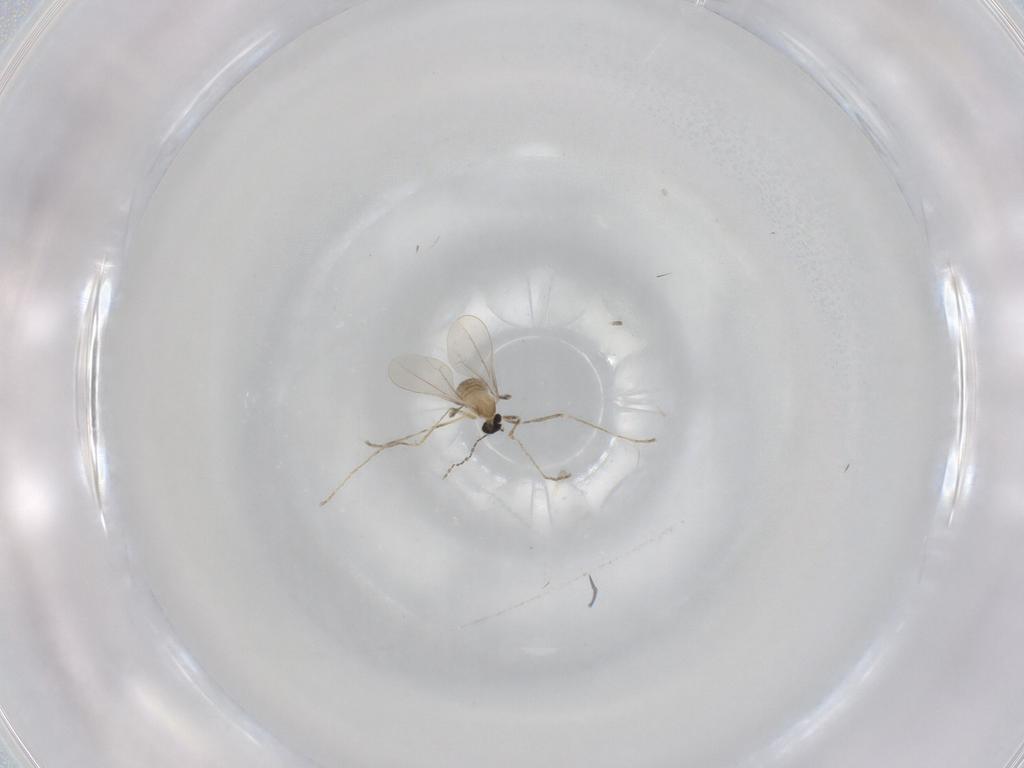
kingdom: Animalia
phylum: Arthropoda
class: Insecta
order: Diptera
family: Cecidomyiidae
